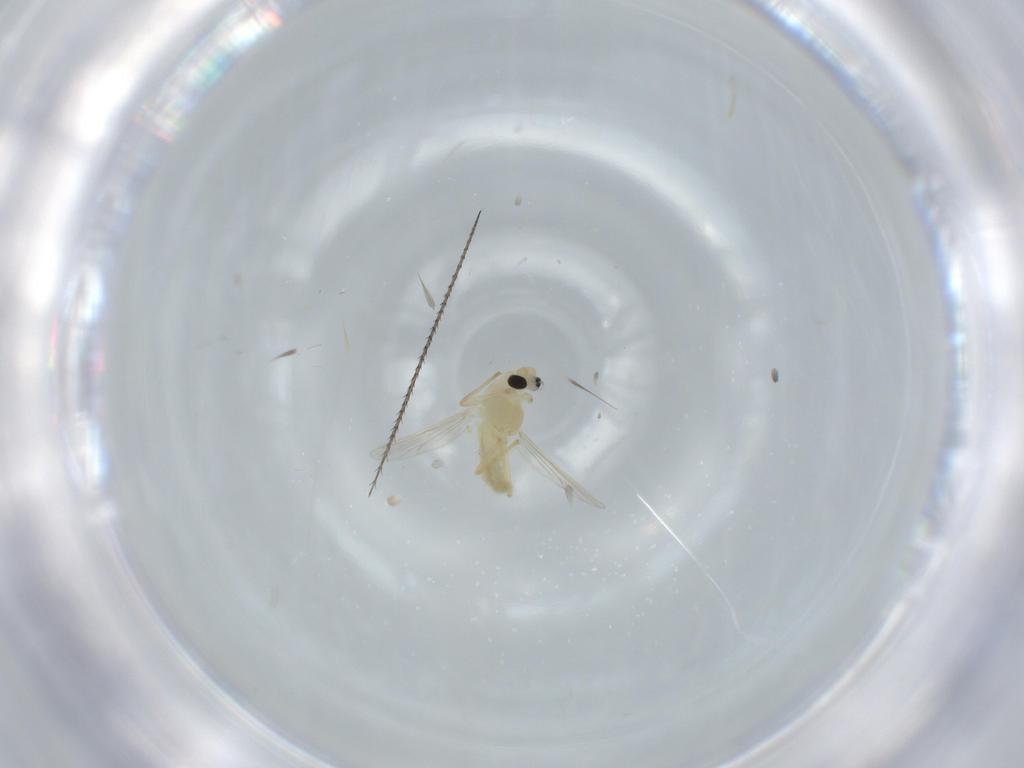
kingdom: Animalia
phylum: Arthropoda
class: Insecta
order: Diptera
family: Chironomidae
